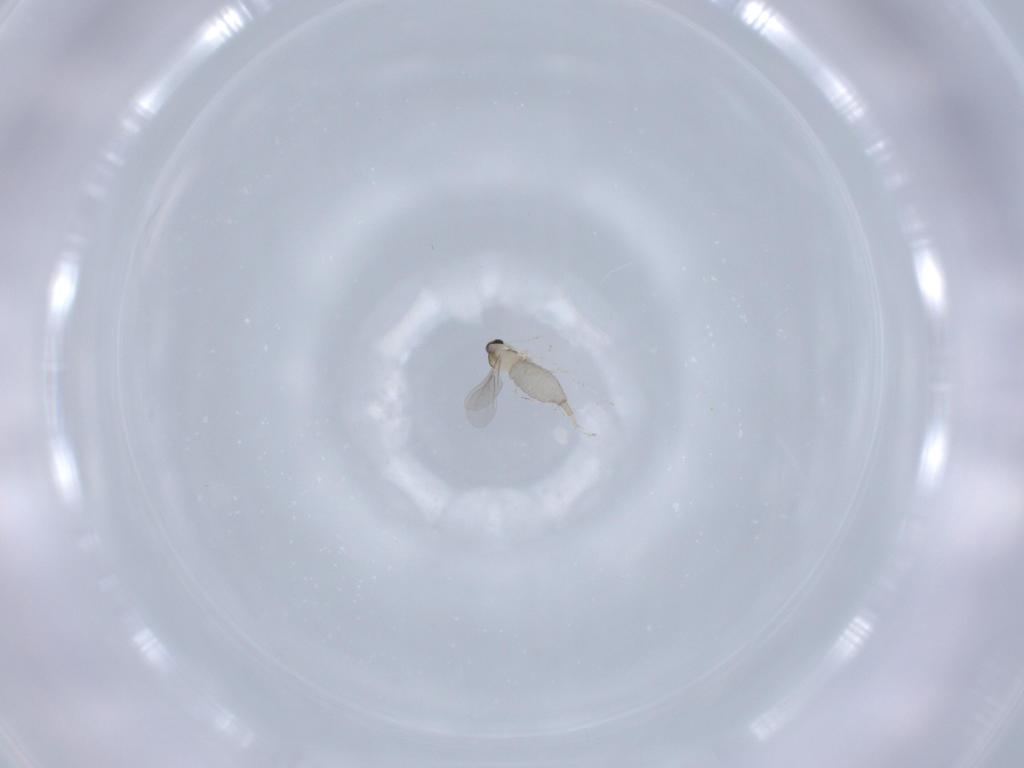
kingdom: Animalia
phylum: Arthropoda
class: Insecta
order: Diptera
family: Cecidomyiidae
